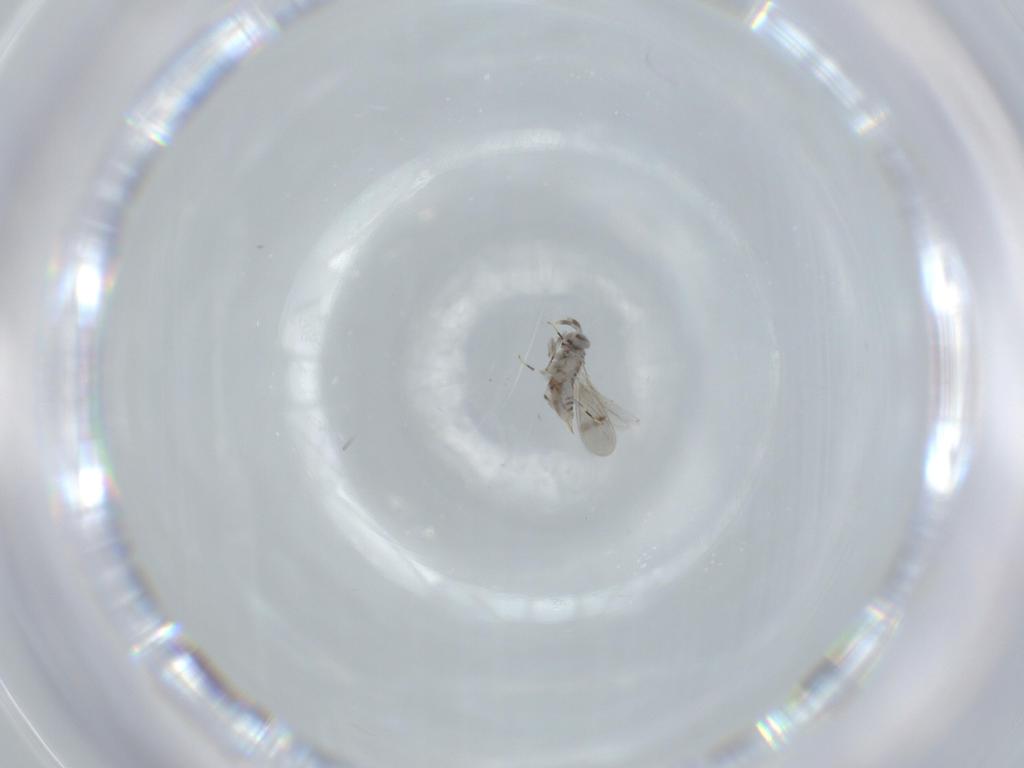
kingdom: Animalia
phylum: Arthropoda
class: Insecta
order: Hymenoptera
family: Aphelinidae
